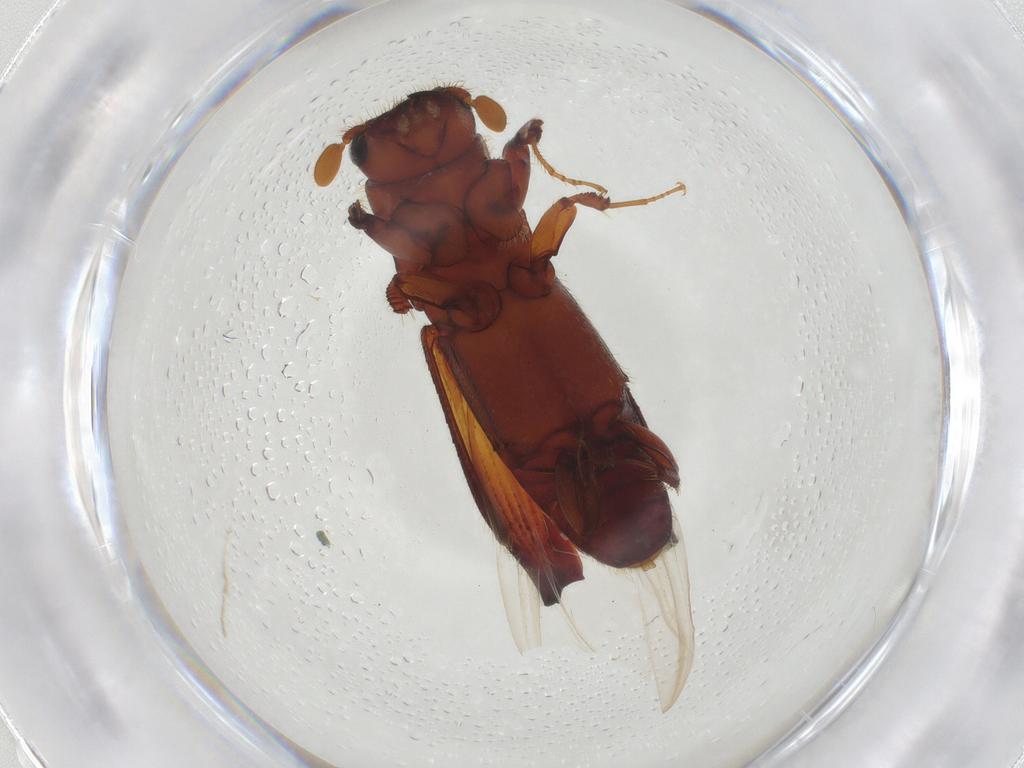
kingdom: Animalia
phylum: Arthropoda
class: Insecta
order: Coleoptera
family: Curculionidae
